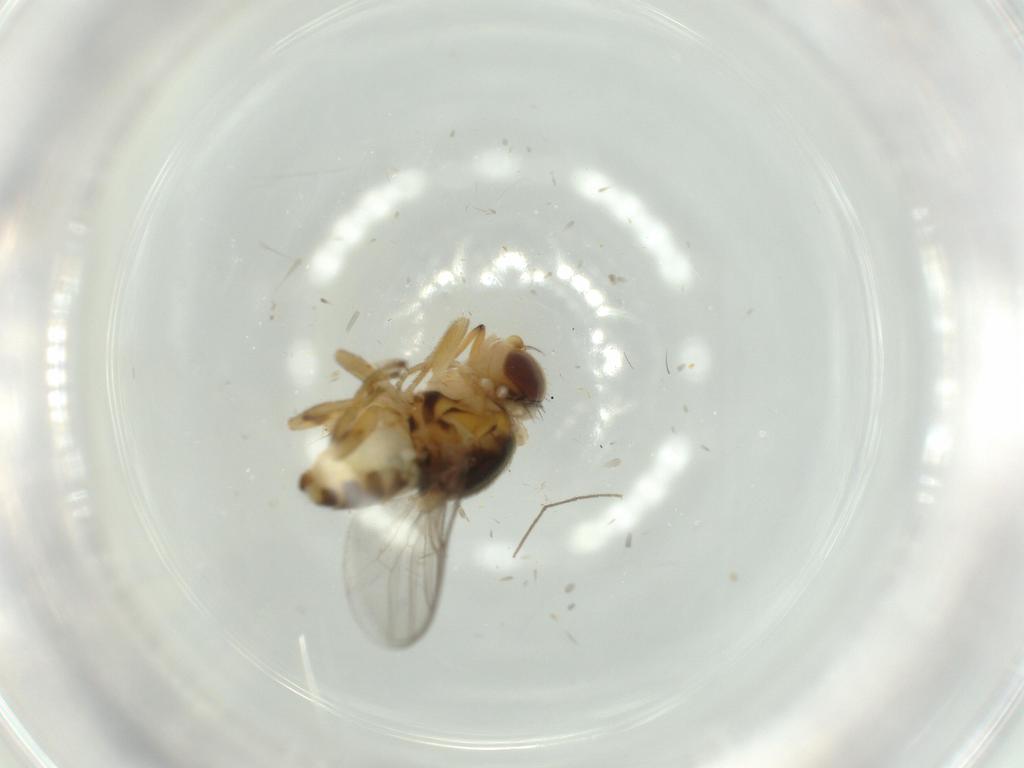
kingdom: Animalia
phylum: Arthropoda
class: Insecta
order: Diptera
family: Chloropidae
